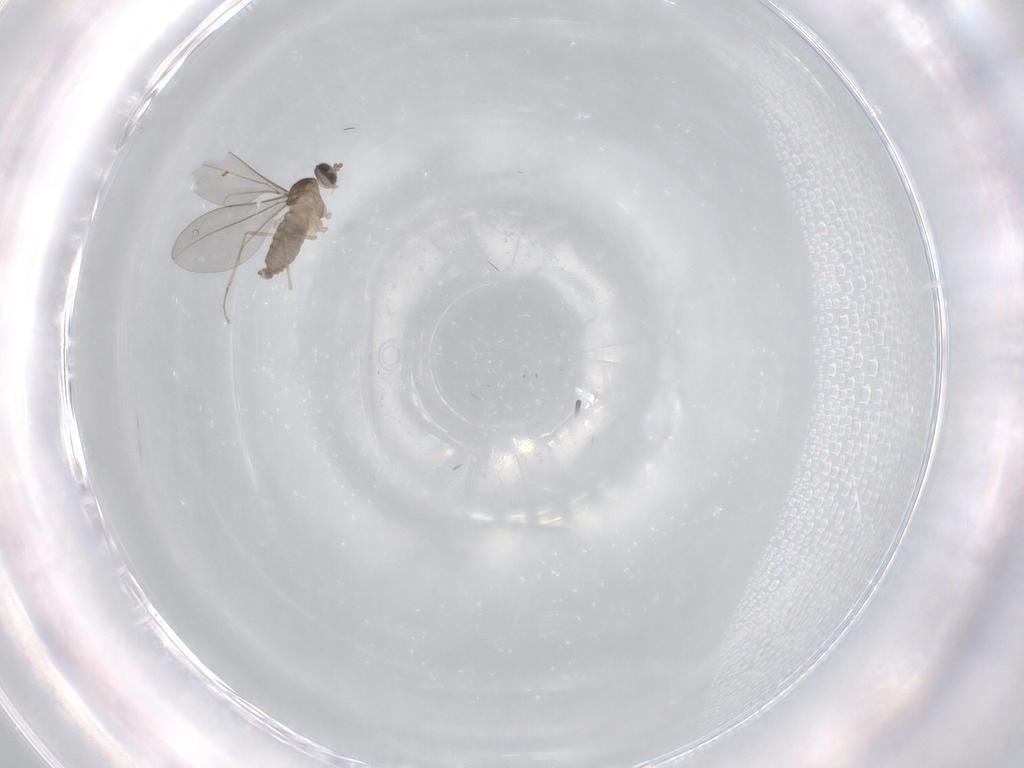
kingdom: Animalia
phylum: Arthropoda
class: Insecta
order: Diptera
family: Cecidomyiidae
